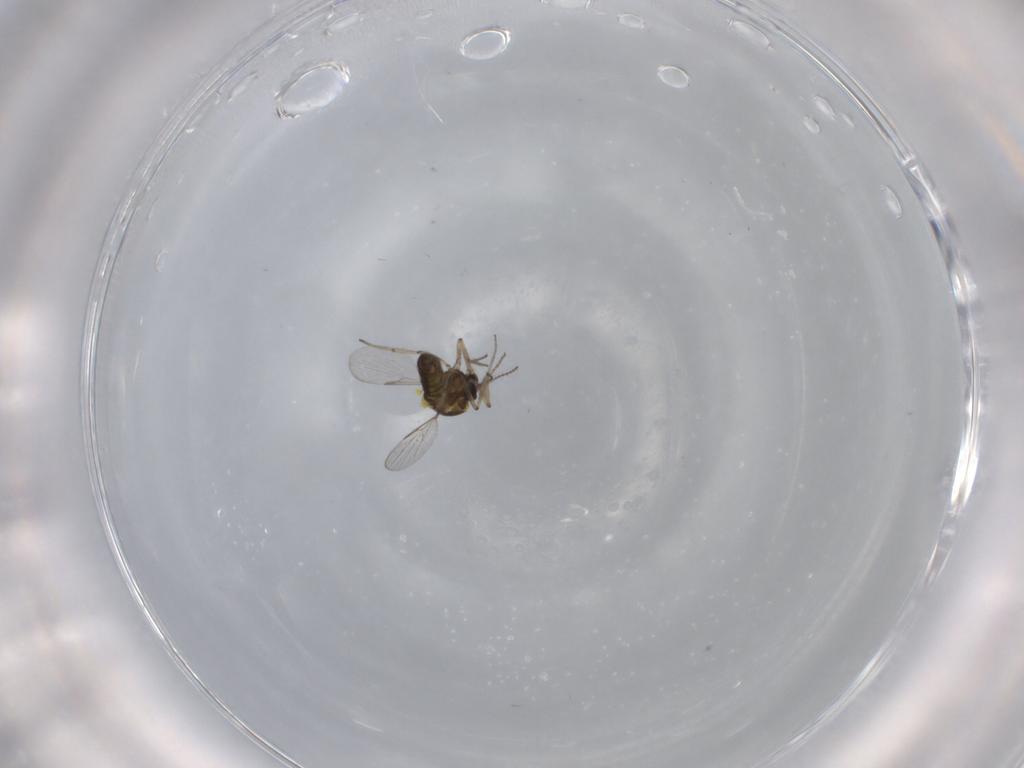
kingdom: Animalia
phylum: Arthropoda
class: Insecta
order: Diptera
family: Ceratopogonidae
